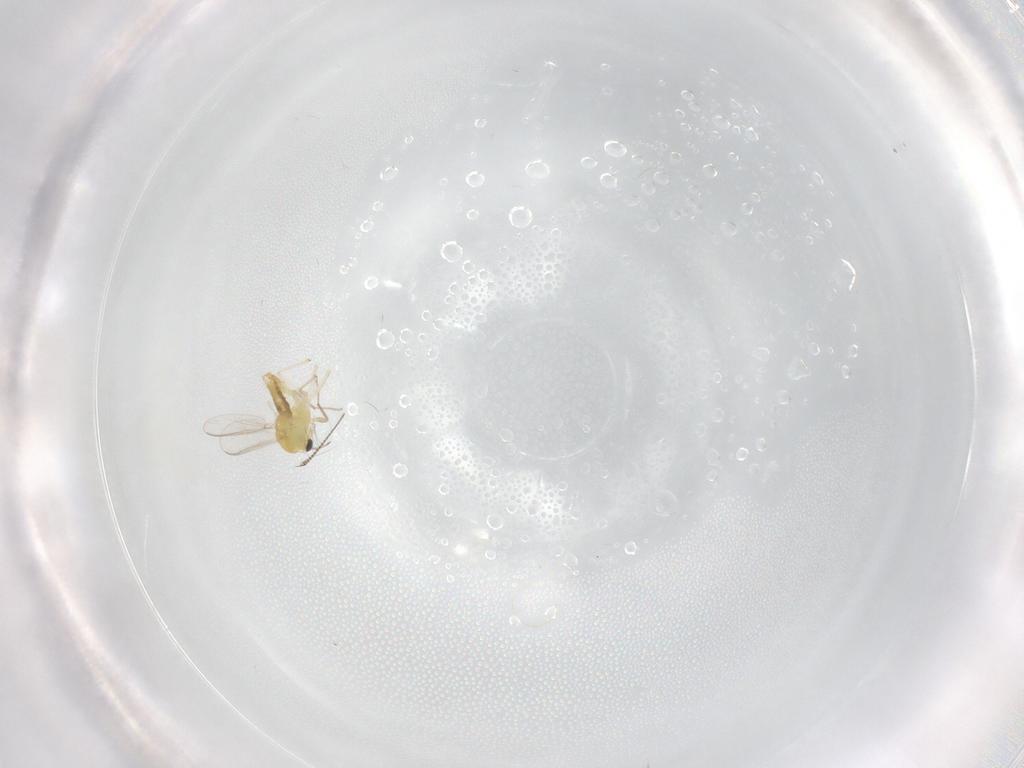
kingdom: Animalia
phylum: Arthropoda
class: Insecta
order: Diptera
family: Chironomidae
